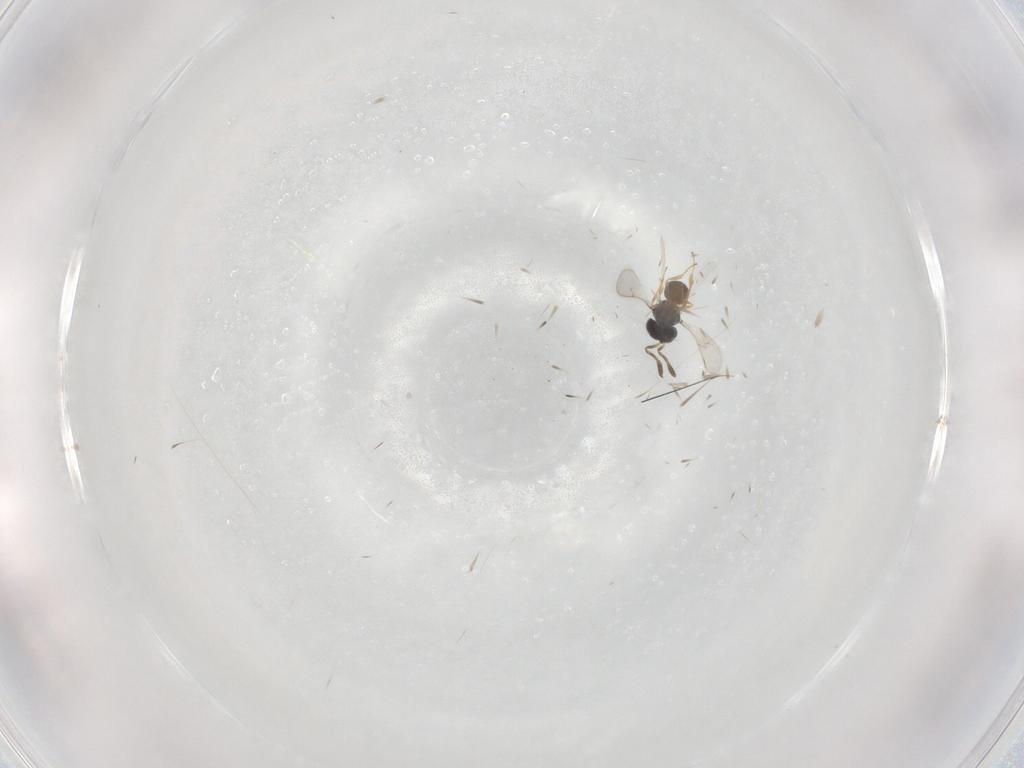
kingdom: Animalia
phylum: Arthropoda
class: Insecta
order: Hymenoptera
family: Scelionidae
